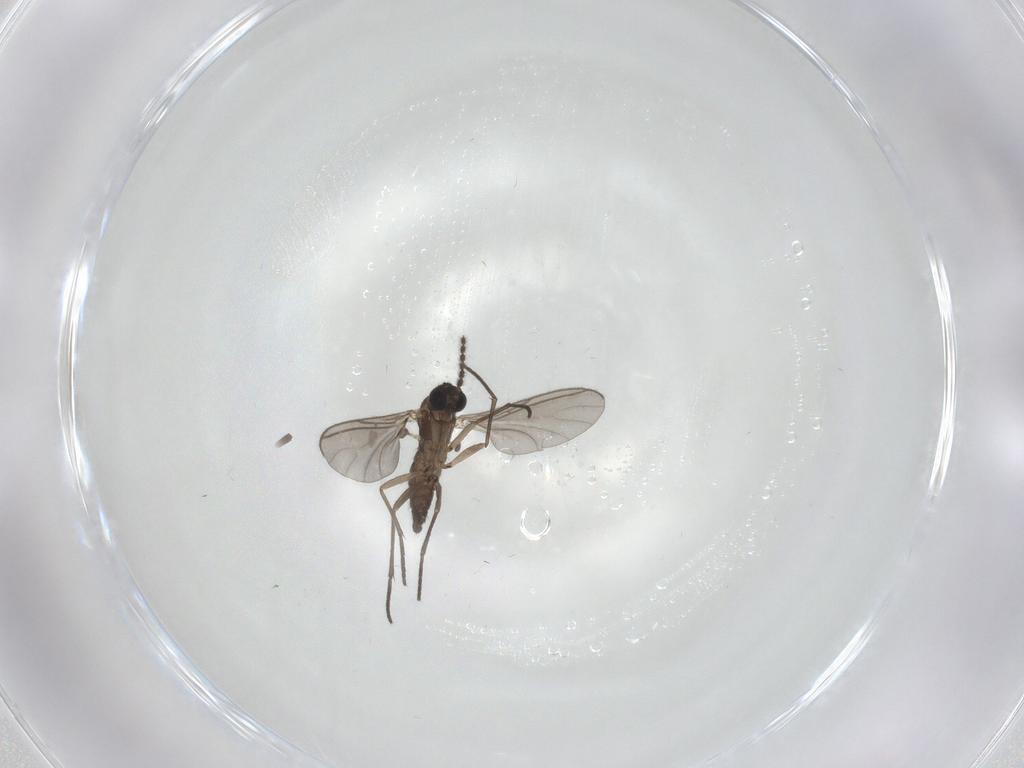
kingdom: Animalia
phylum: Arthropoda
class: Insecta
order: Diptera
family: Sciaridae
